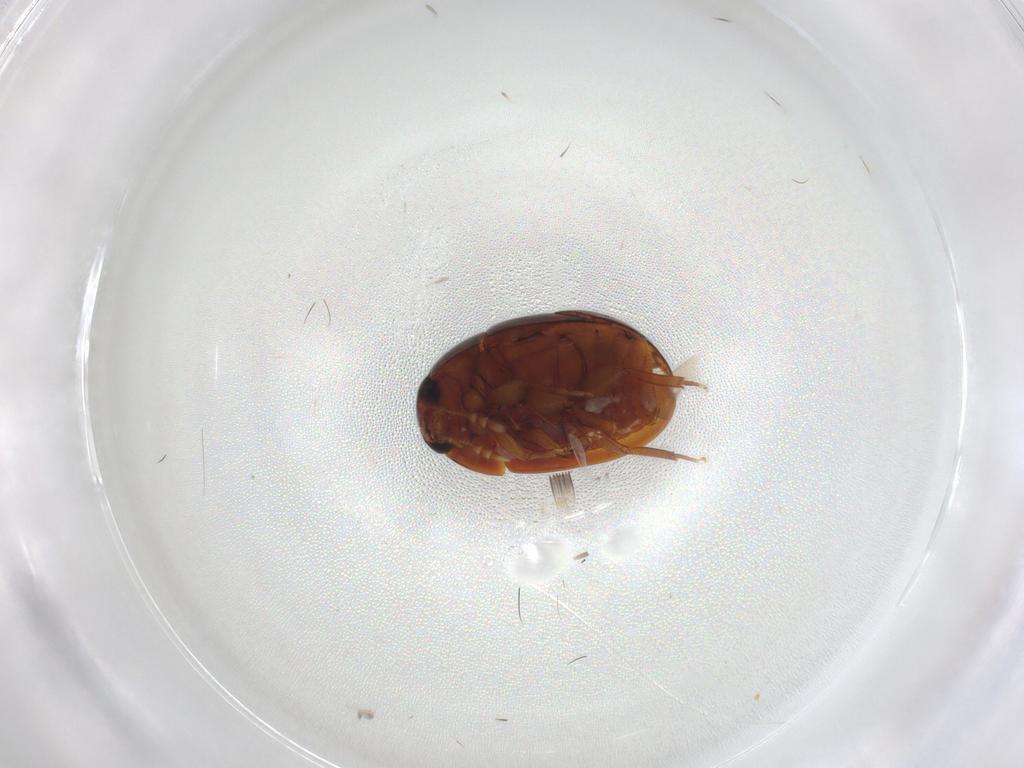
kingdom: Animalia
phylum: Arthropoda
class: Insecta
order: Coleoptera
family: Phalacridae
